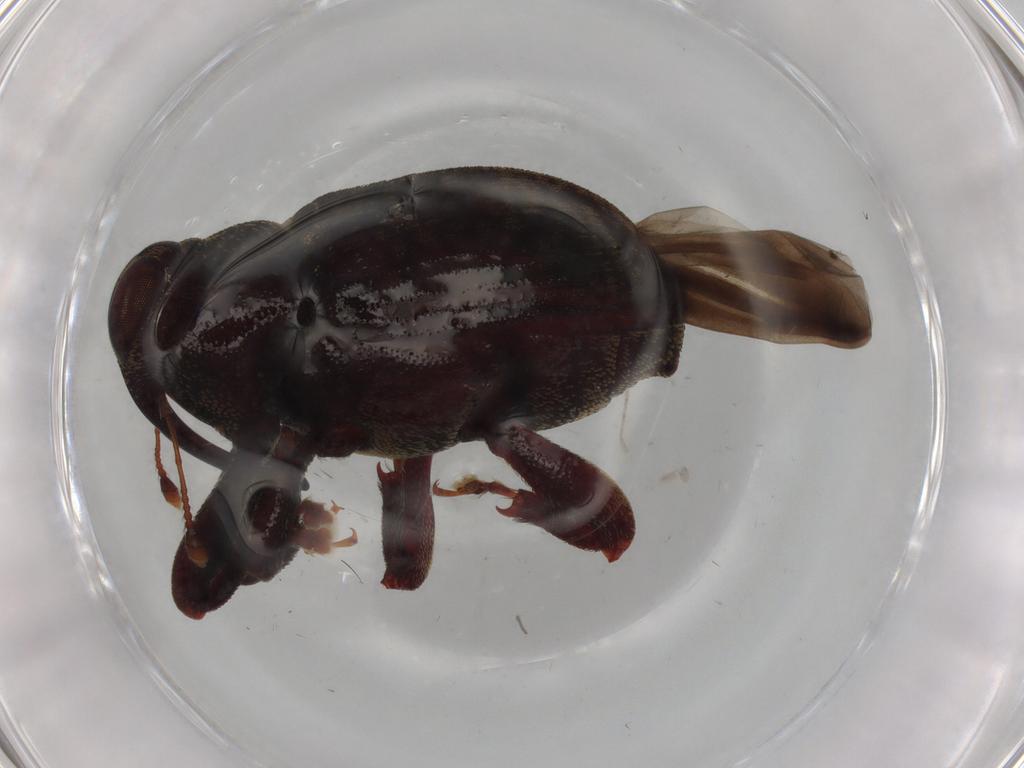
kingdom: Animalia
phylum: Arthropoda
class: Insecta
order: Coleoptera
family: Curculionidae
